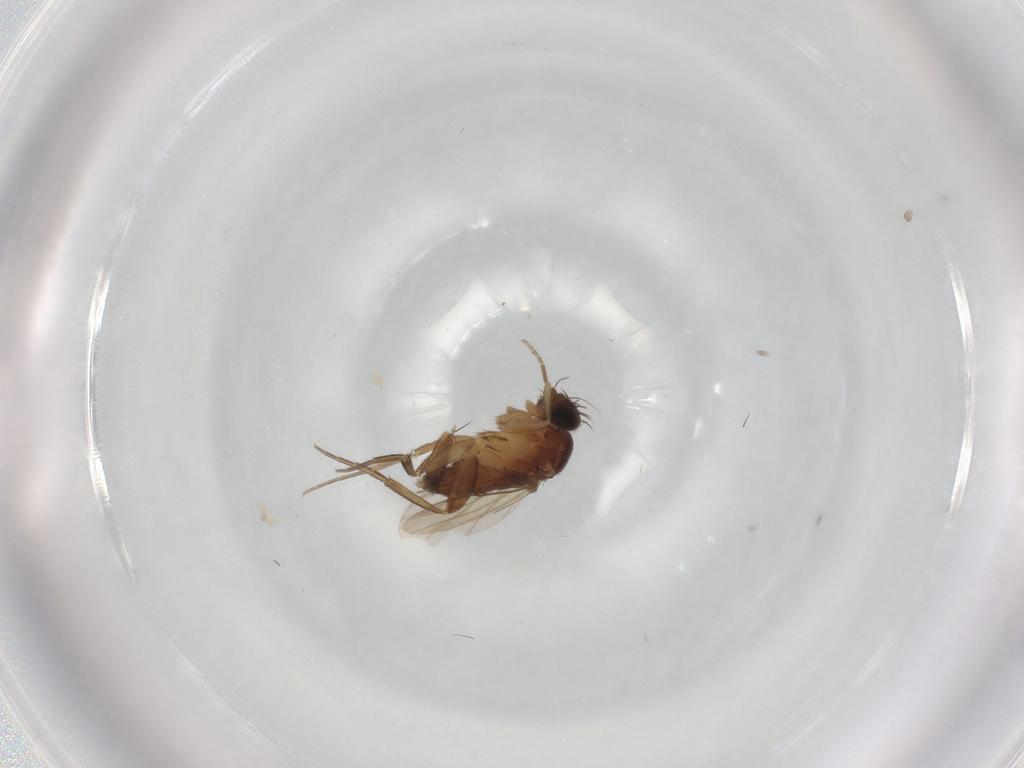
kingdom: Animalia
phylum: Arthropoda
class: Insecta
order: Diptera
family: Phoridae
